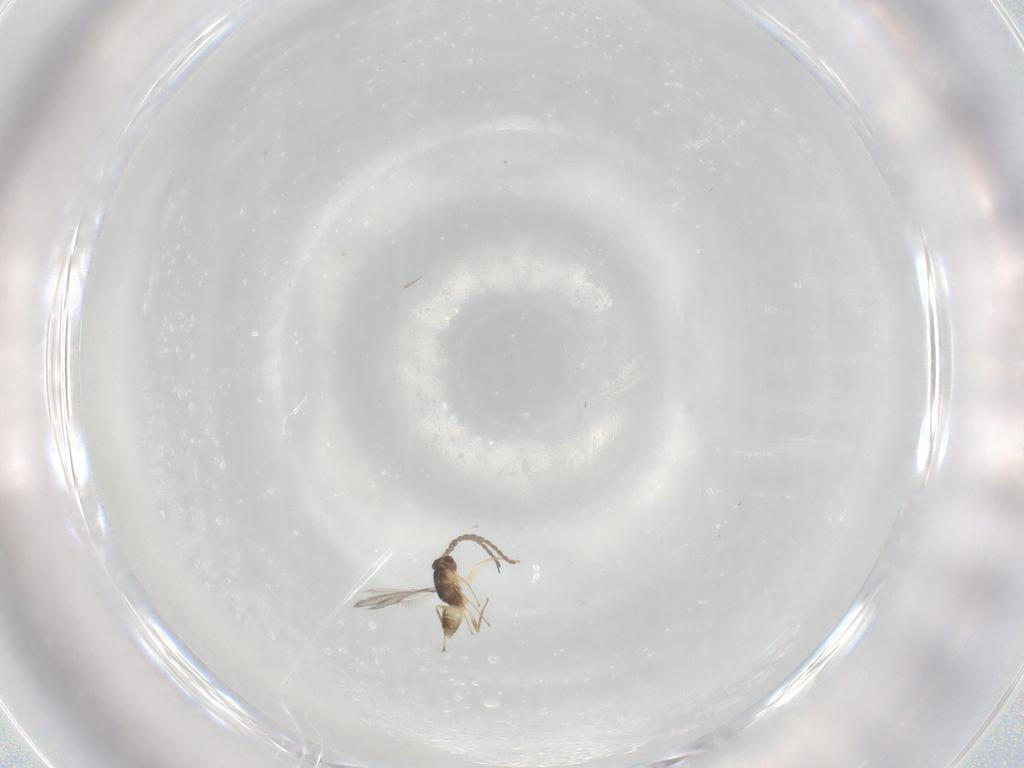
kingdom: Animalia
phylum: Arthropoda
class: Insecta
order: Hymenoptera
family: Mymaridae
